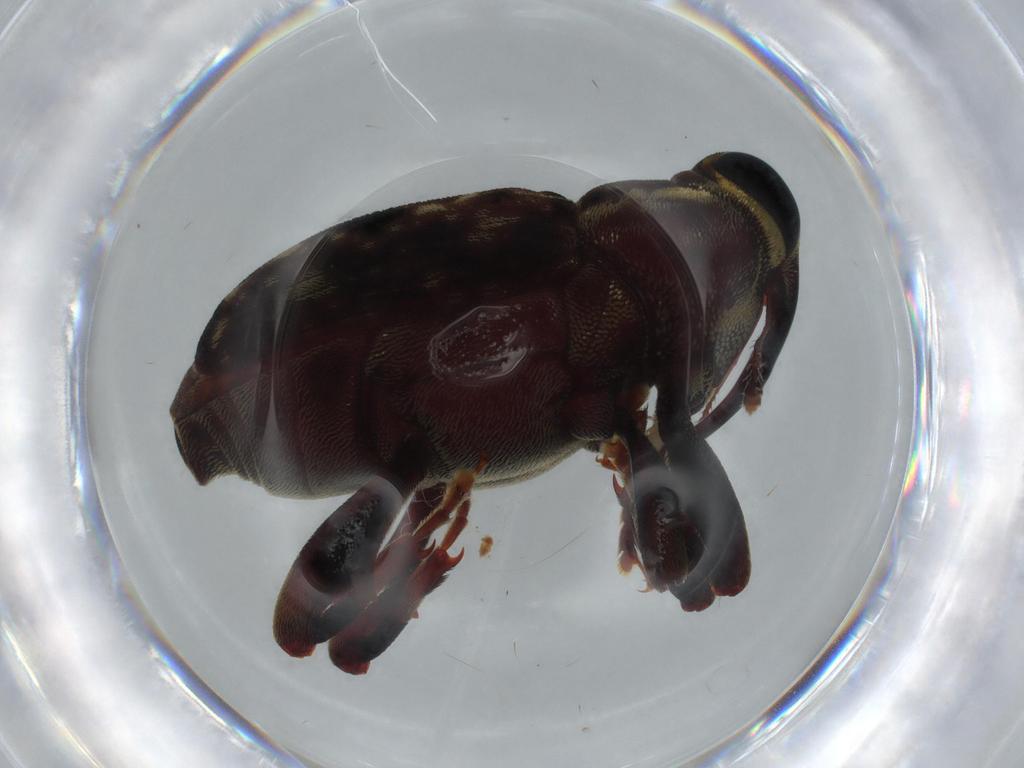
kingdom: Animalia
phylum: Arthropoda
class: Insecta
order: Coleoptera
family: Curculionidae
